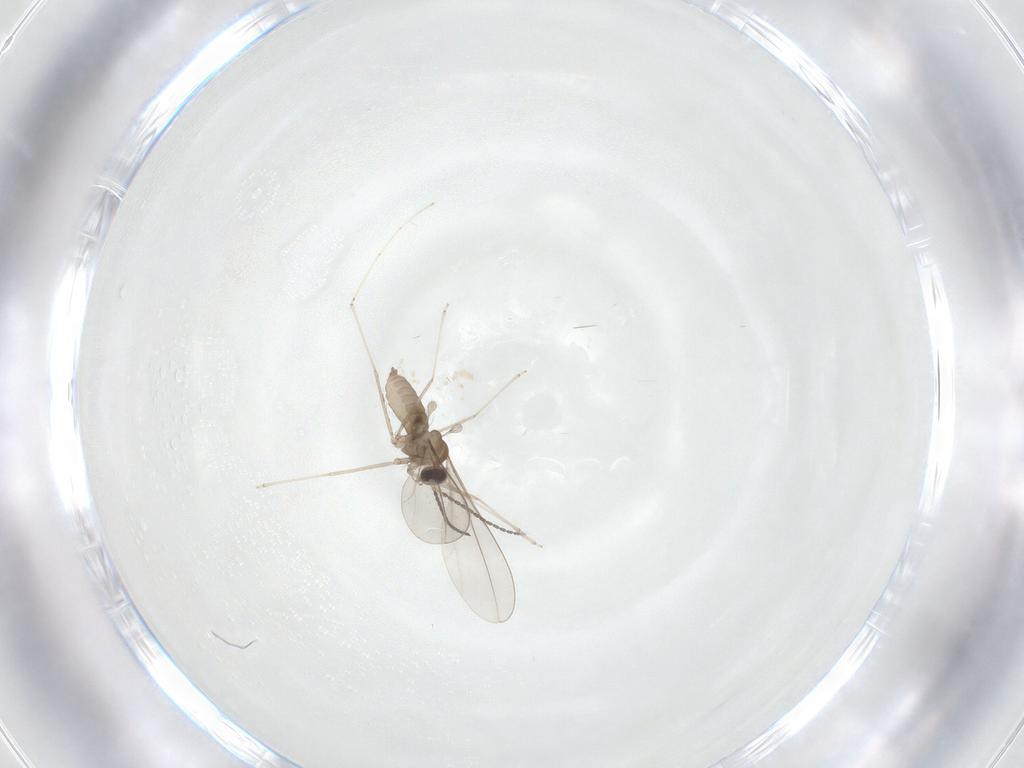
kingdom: Animalia
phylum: Arthropoda
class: Insecta
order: Diptera
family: Cecidomyiidae
